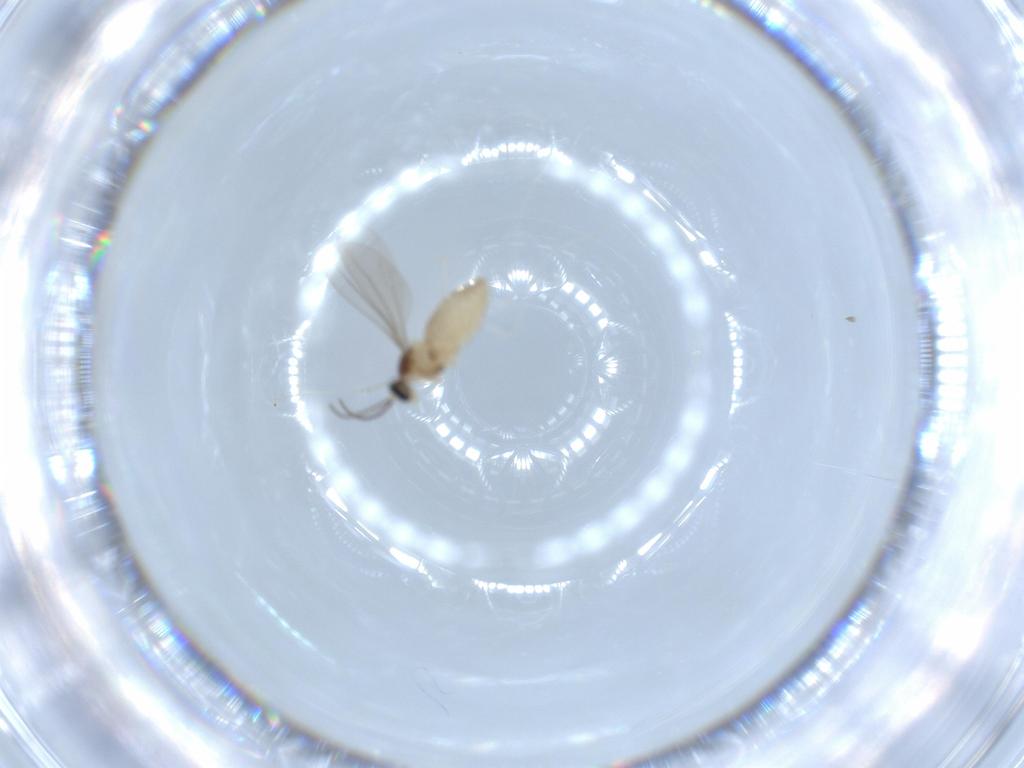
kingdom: Animalia
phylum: Arthropoda
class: Insecta
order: Diptera
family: Cecidomyiidae
